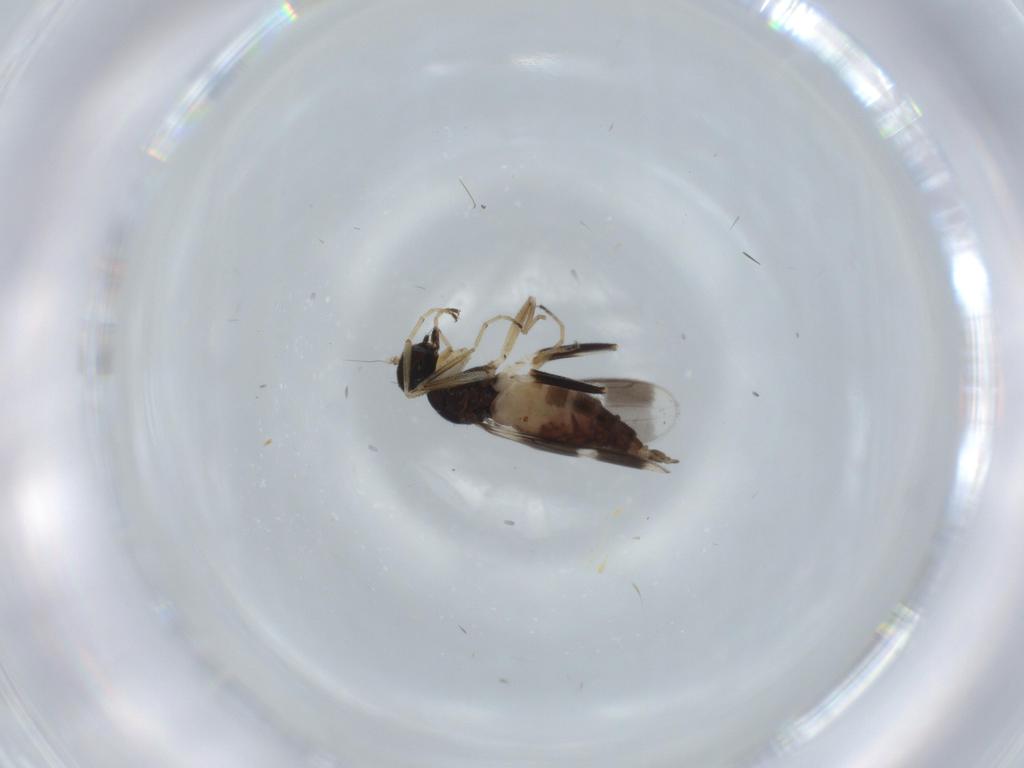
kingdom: Animalia
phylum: Arthropoda
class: Insecta
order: Diptera
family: Hybotidae
